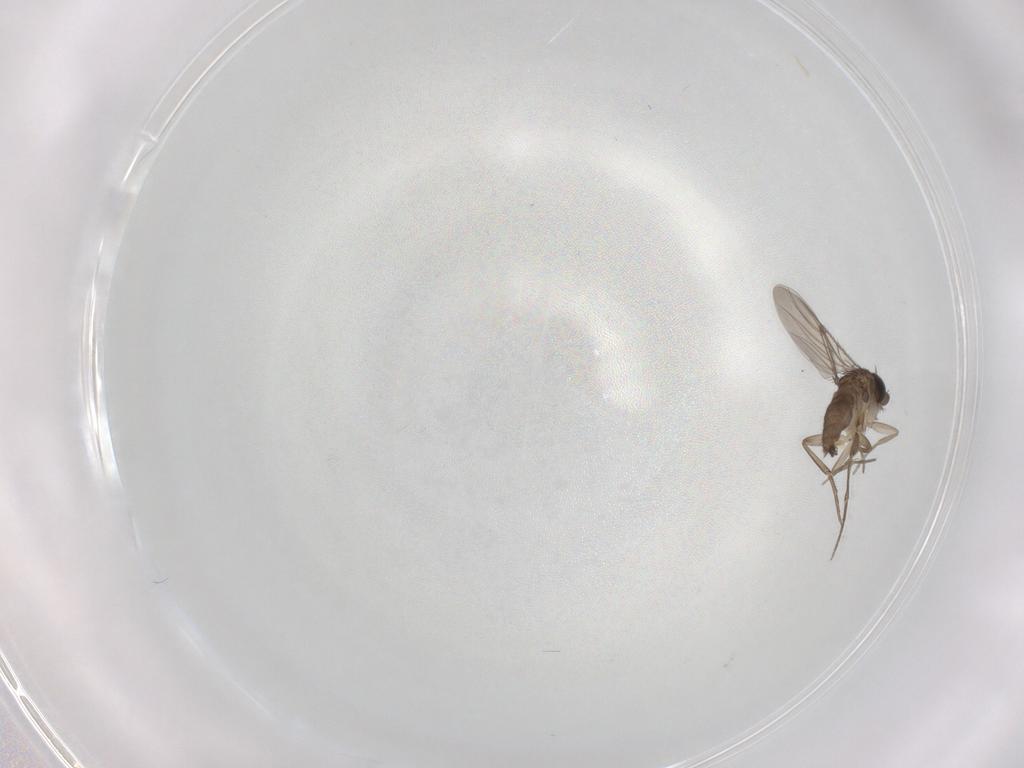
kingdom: Animalia
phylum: Arthropoda
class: Insecta
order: Diptera
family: Phoridae
